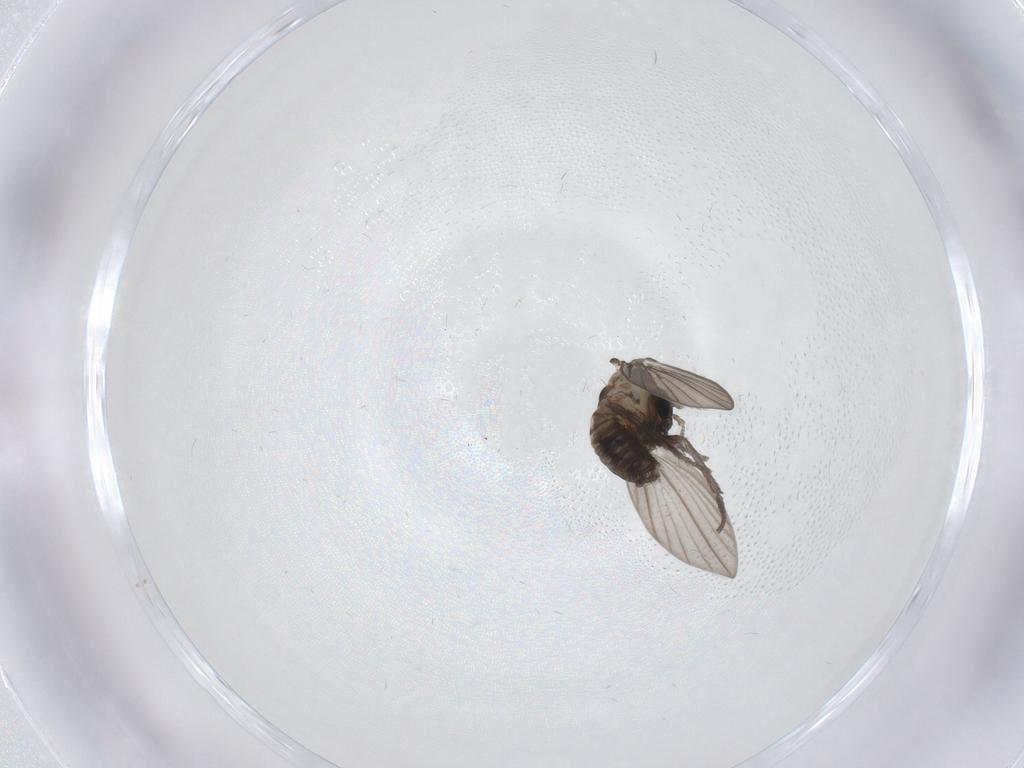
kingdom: Animalia
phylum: Arthropoda
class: Insecta
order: Diptera
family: Psychodidae
